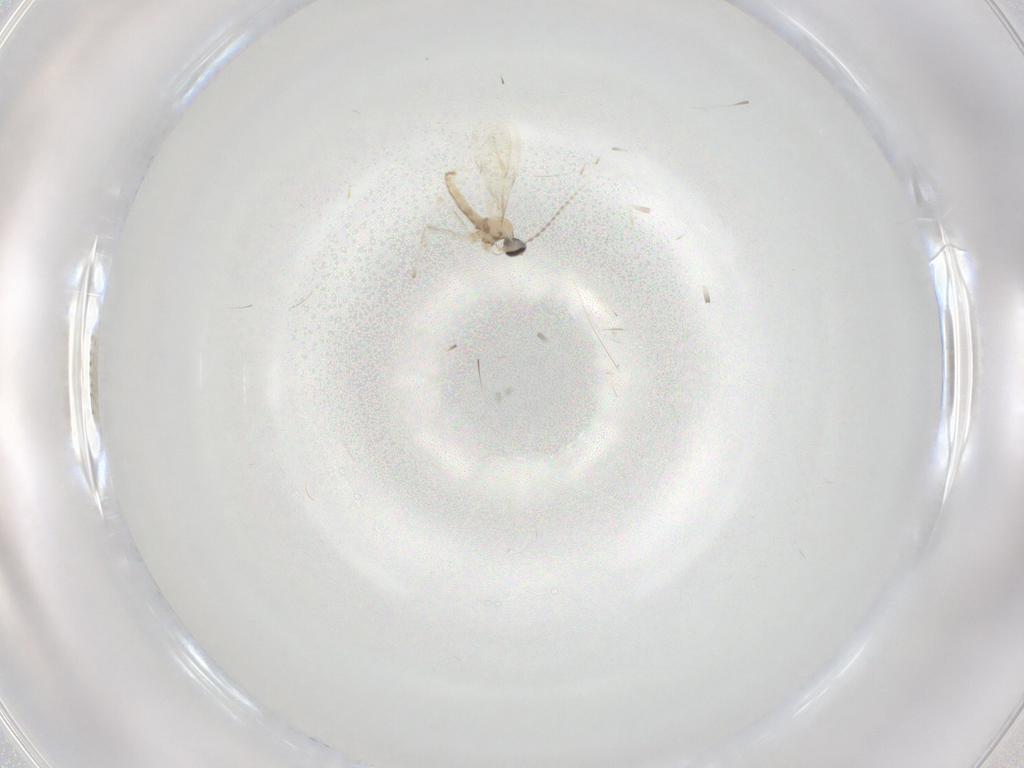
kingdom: Animalia
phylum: Arthropoda
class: Insecta
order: Diptera
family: Cecidomyiidae
